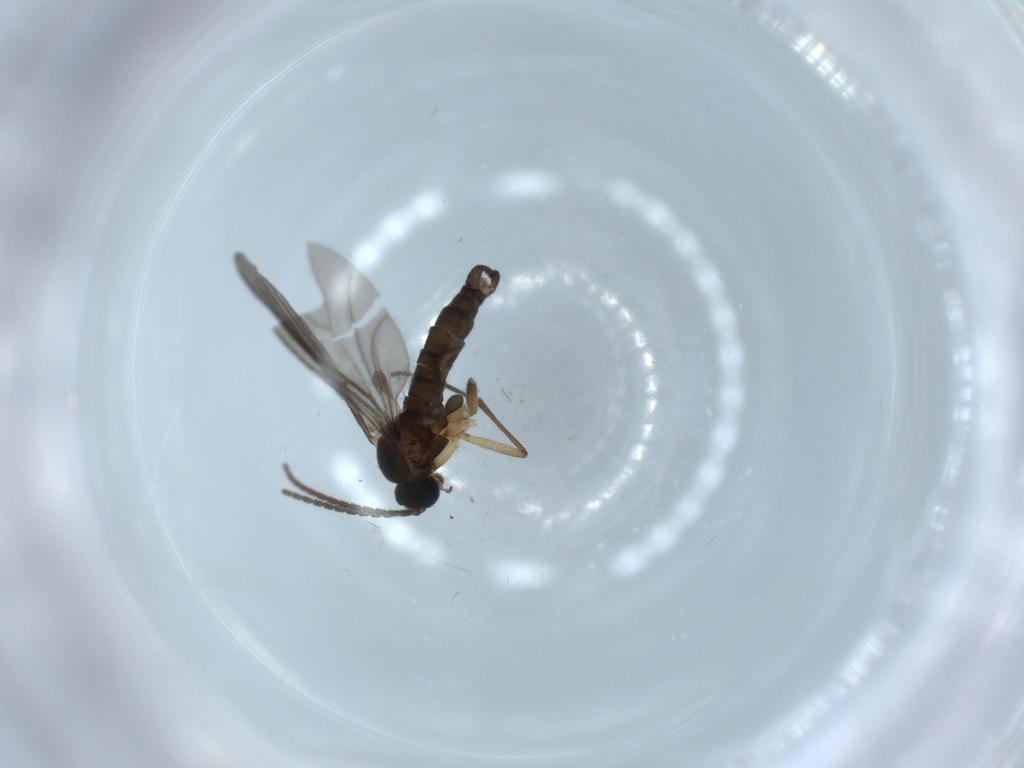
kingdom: Animalia
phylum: Arthropoda
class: Insecta
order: Diptera
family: Sciaridae
